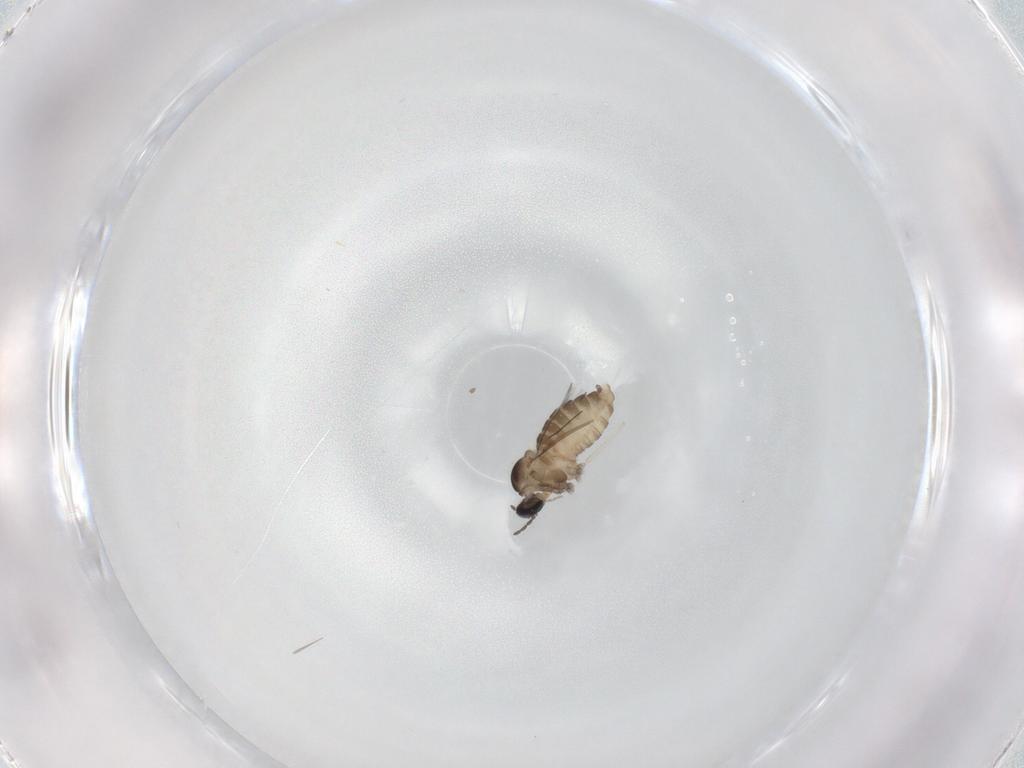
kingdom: Animalia
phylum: Arthropoda
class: Insecta
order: Diptera
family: Cecidomyiidae
